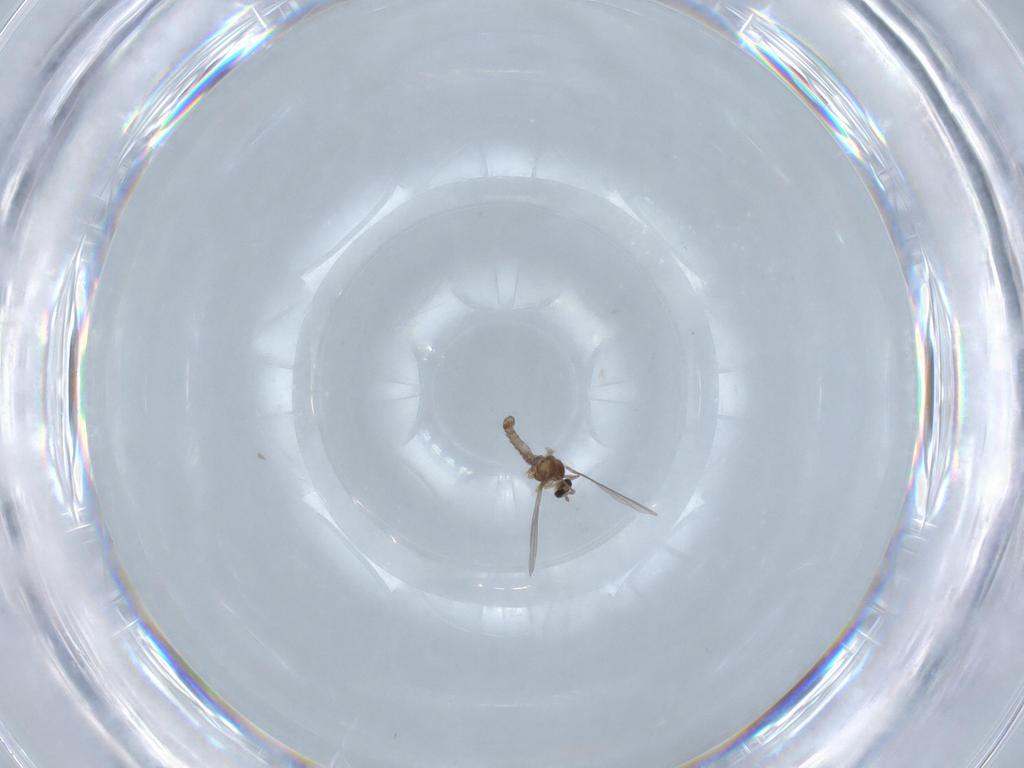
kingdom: Animalia
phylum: Arthropoda
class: Insecta
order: Diptera
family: Cecidomyiidae
